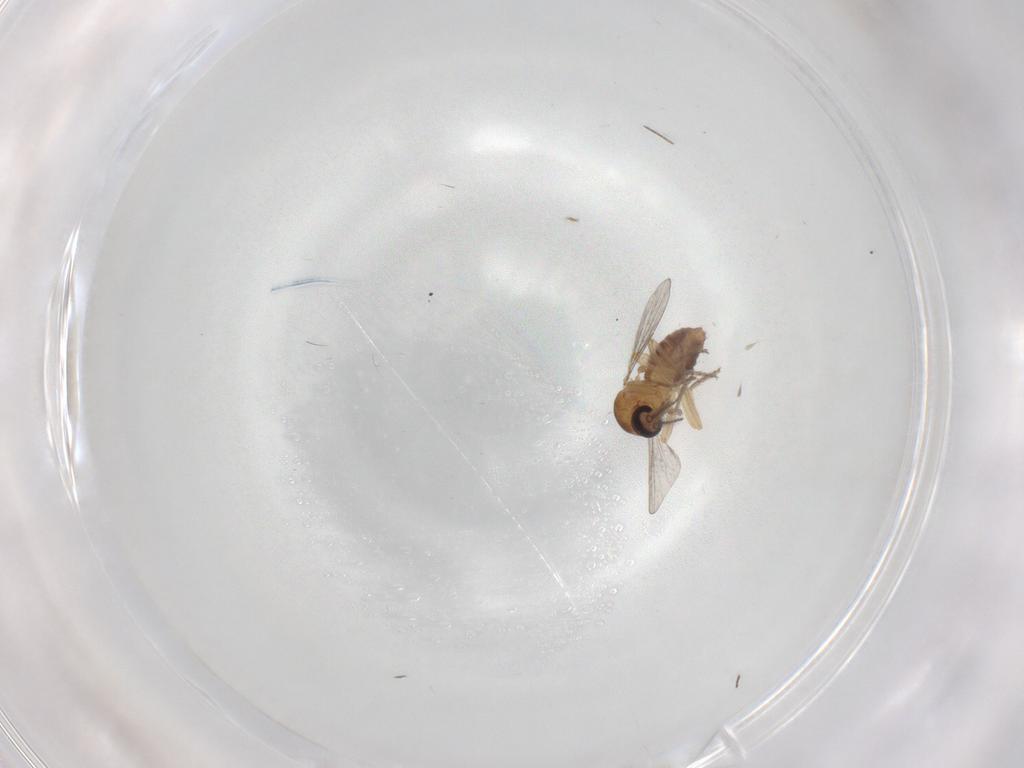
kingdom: Animalia
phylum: Arthropoda
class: Insecta
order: Diptera
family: Ceratopogonidae
